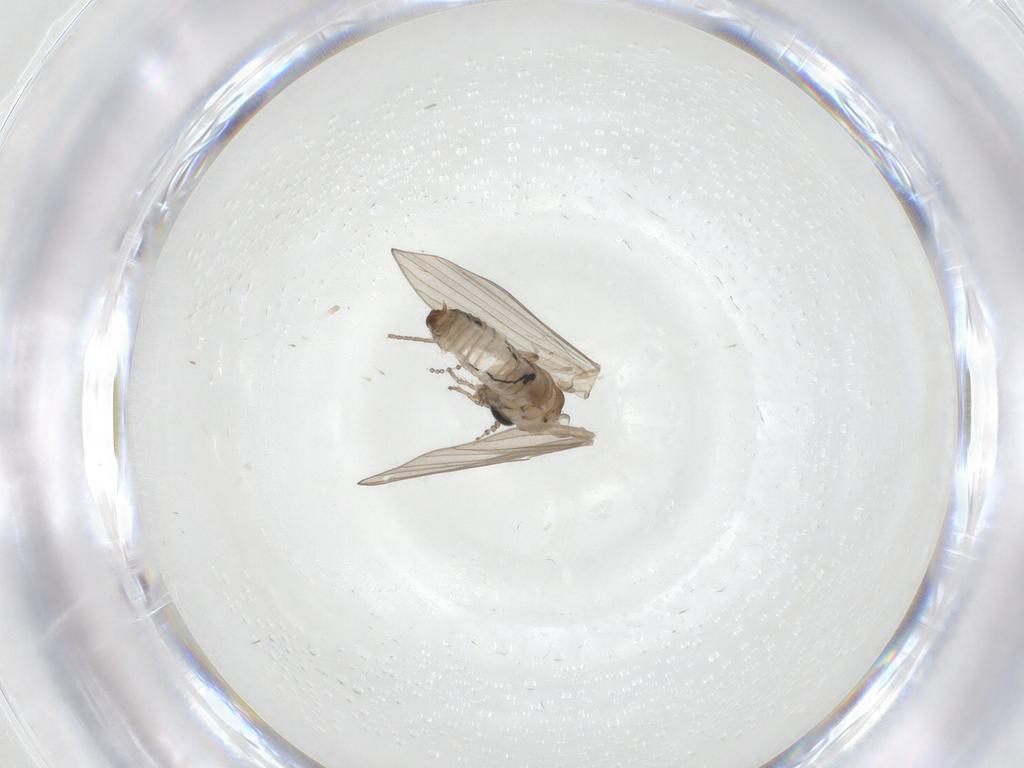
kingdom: Animalia
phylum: Arthropoda
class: Insecta
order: Diptera
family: Psychodidae
